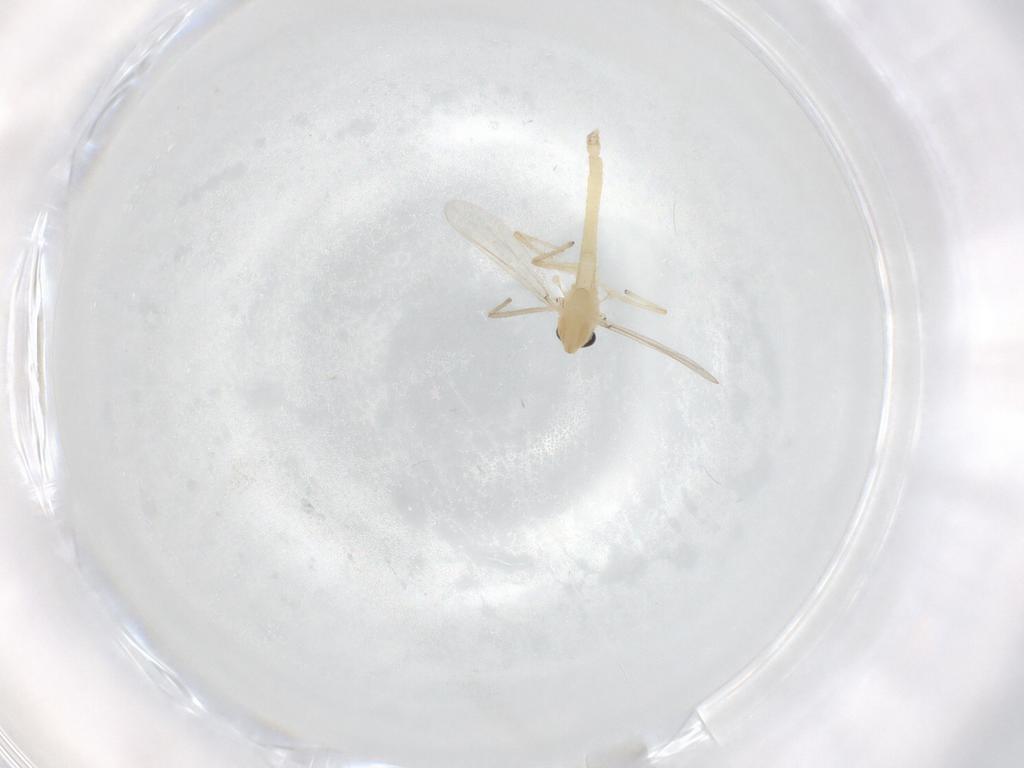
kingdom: Animalia
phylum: Arthropoda
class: Insecta
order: Diptera
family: Chironomidae
